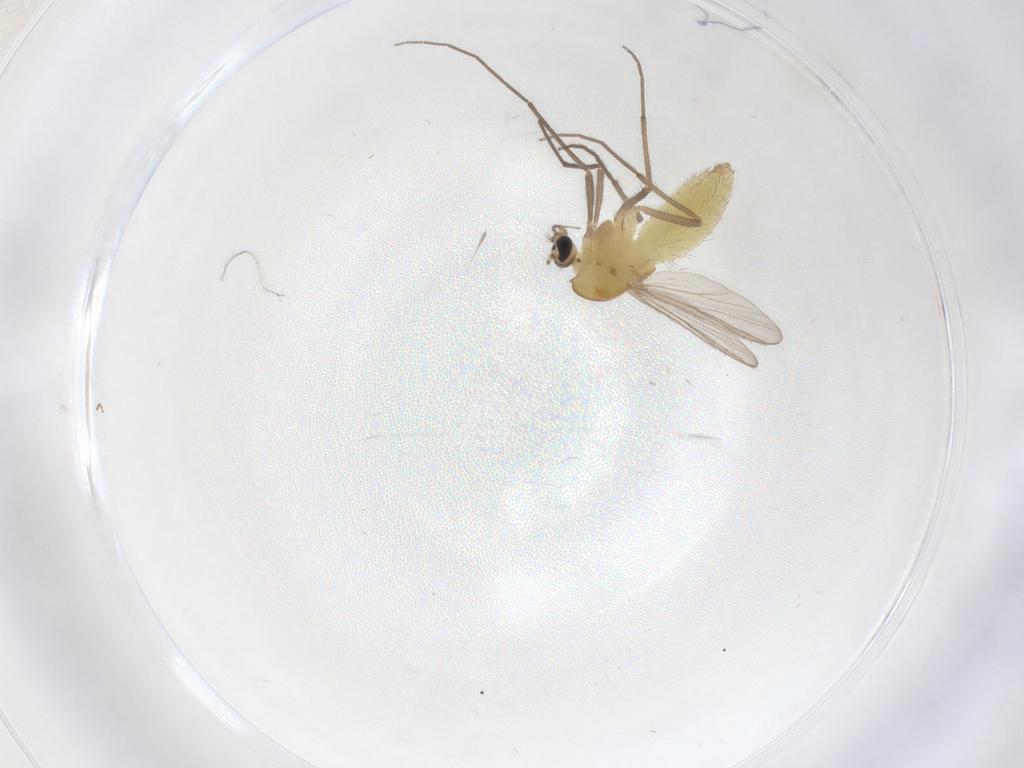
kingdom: Animalia
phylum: Arthropoda
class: Insecta
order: Diptera
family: Chironomidae
